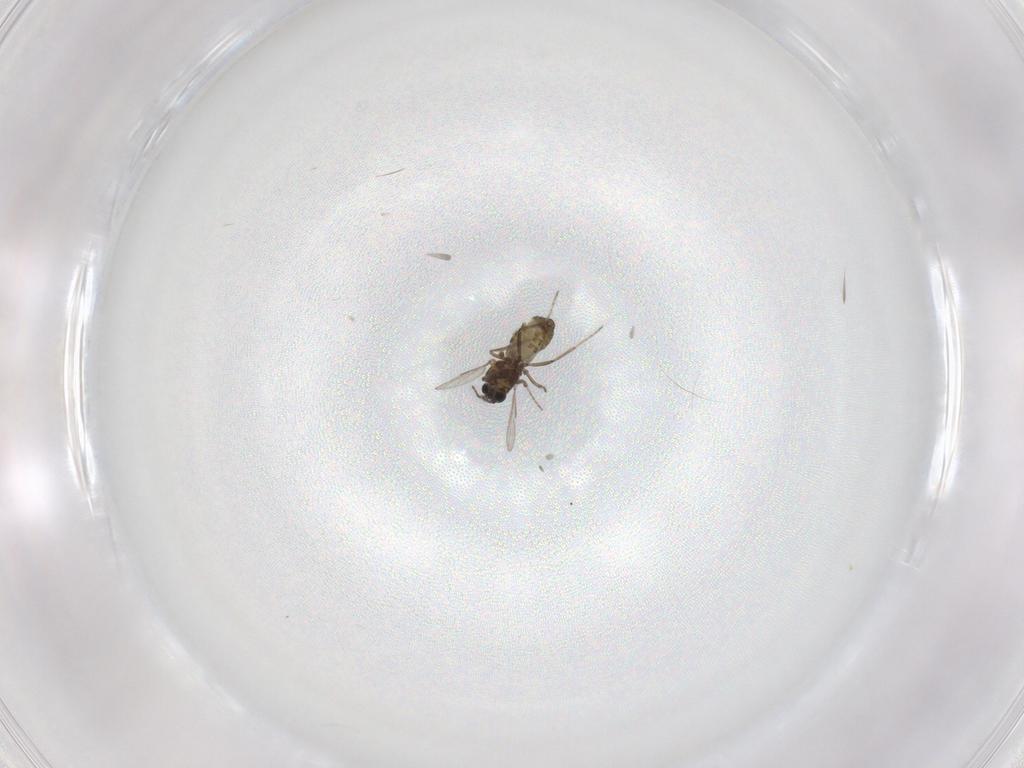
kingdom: Animalia
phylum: Arthropoda
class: Insecta
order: Diptera
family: Ceratopogonidae
